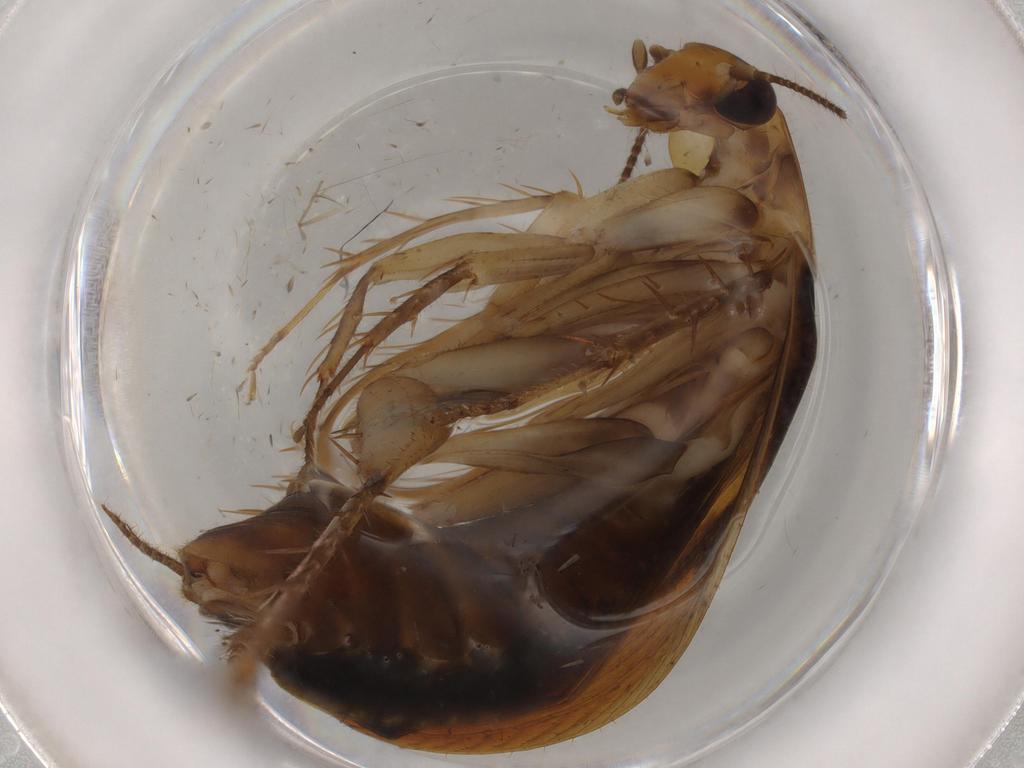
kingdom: Animalia
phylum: Arthropoda
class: Insecta
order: Blattodea
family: Ectobiidae
